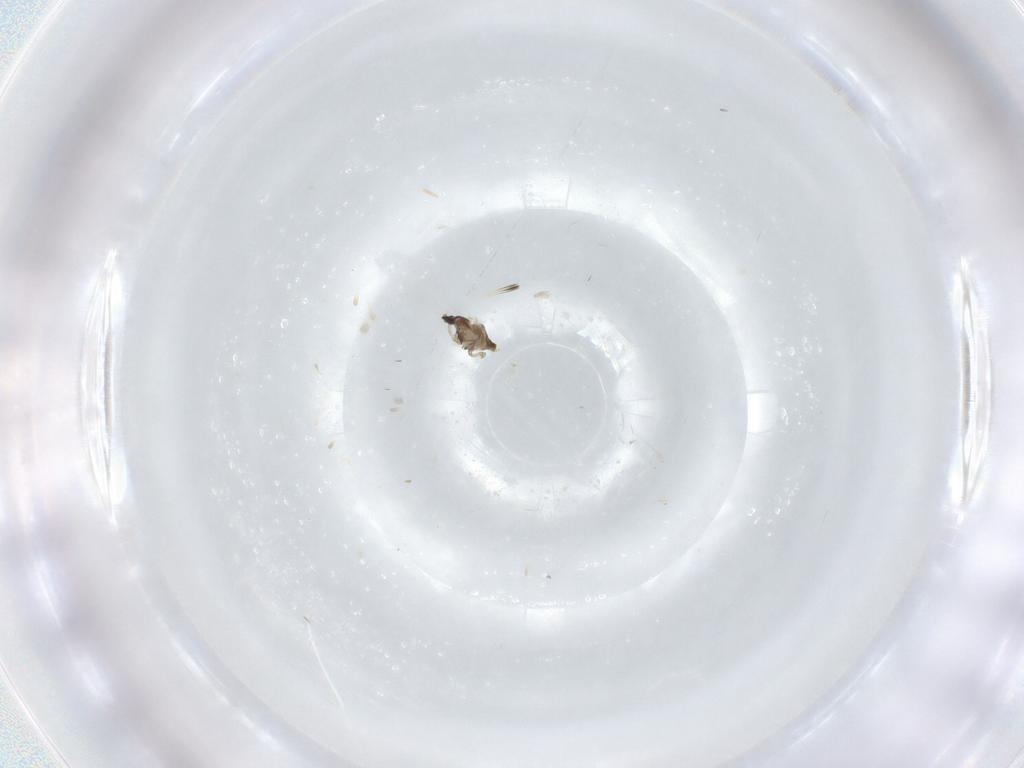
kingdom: Animalia
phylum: Arthropoda
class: Insecta
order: Diptera
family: Cecidomyiidae
